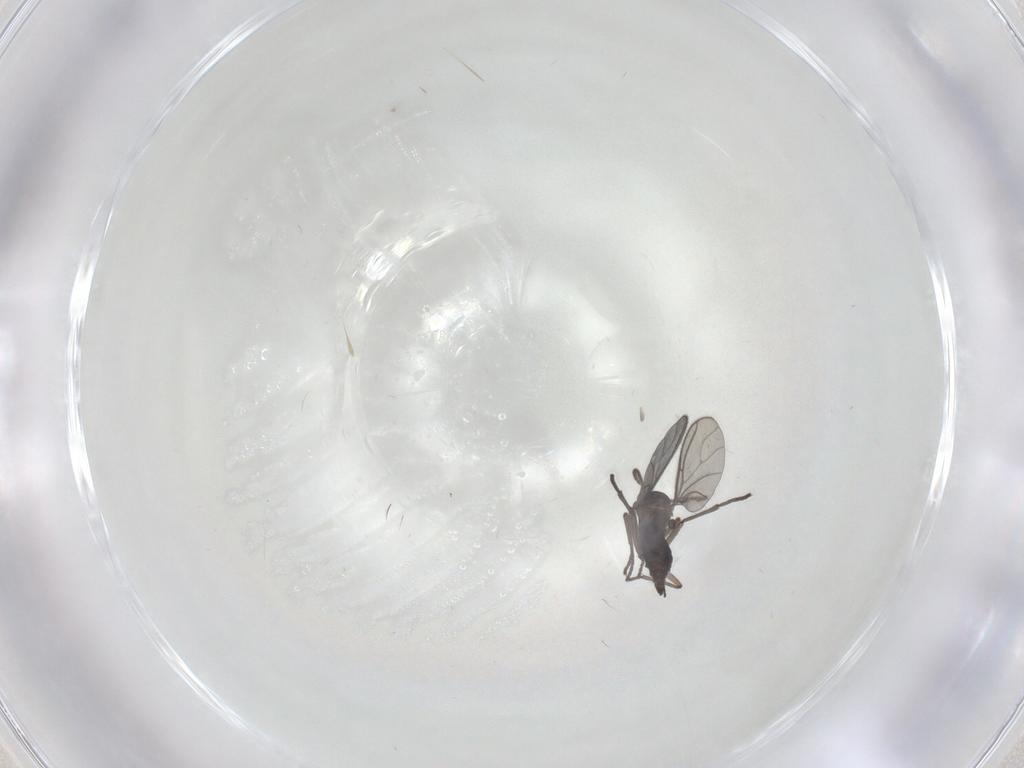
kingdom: Animalia
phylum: Arthropoda
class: Insecta
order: Diptera
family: Sciaridae
